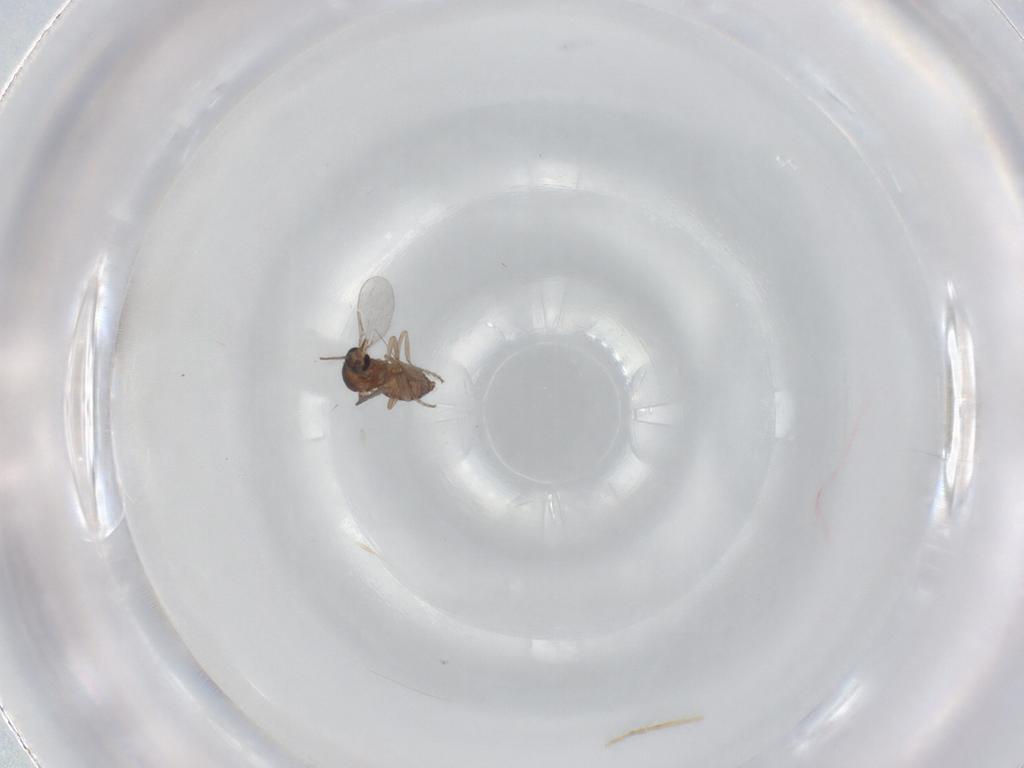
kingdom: Animalia
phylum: Arthropoda
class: Insecta
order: Diptera
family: Ceratopogonidae
